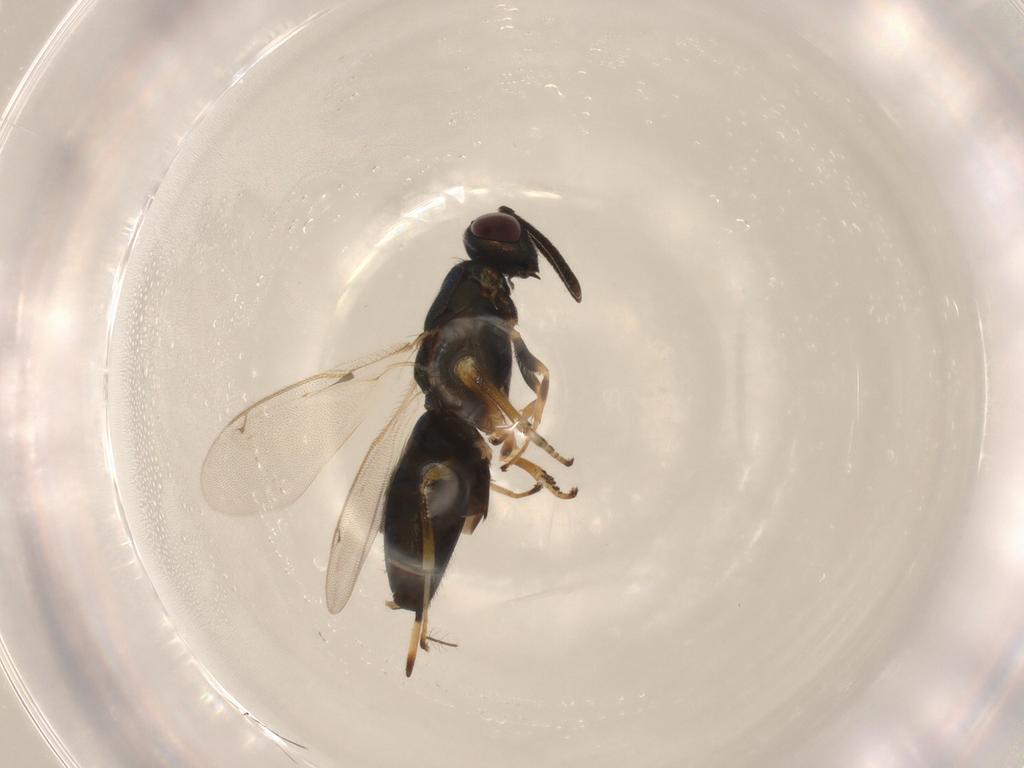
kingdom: Animalia
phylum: Arthropoda
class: Insecta
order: Hymenoptera
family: Eupelmidae
